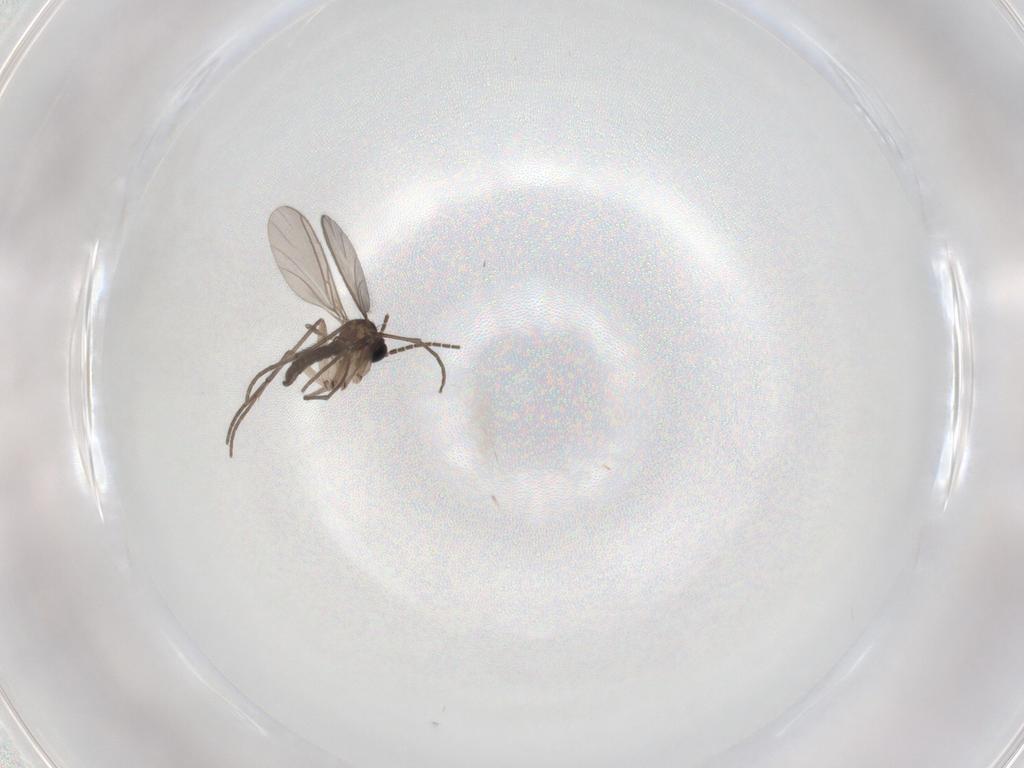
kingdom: Animalia
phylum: Arthropoda
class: Insecta
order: Diptera
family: Sciaridae
